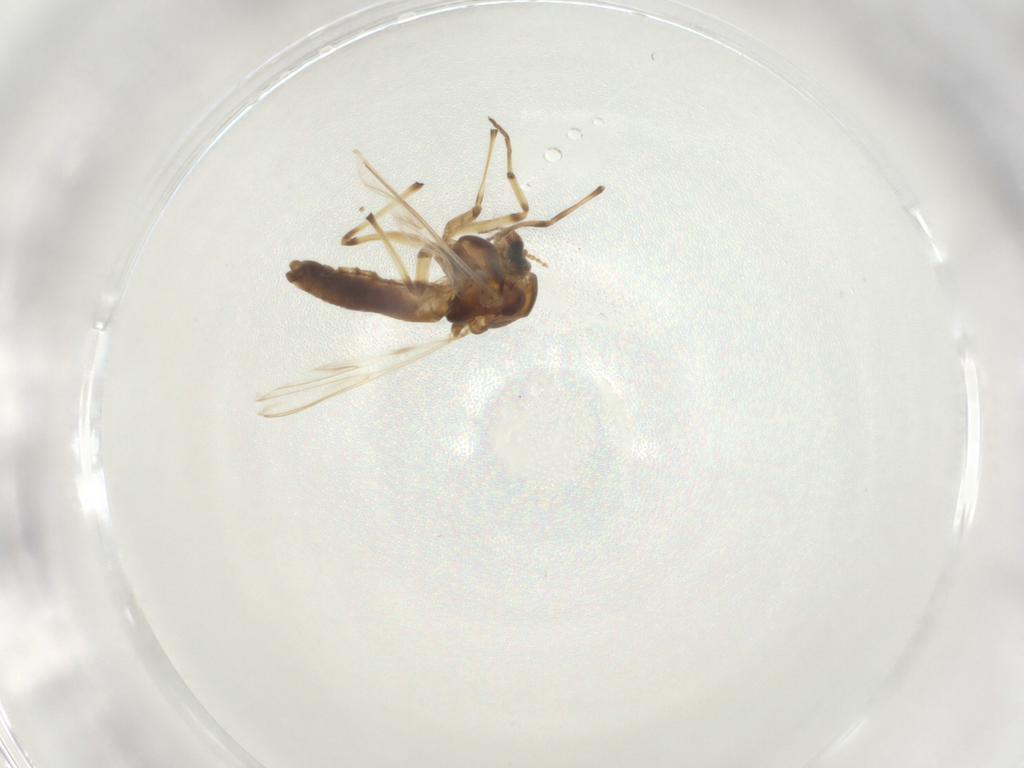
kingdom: Animalia
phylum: Arthropoda
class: Insecta
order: Diptera
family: Chironomidae
